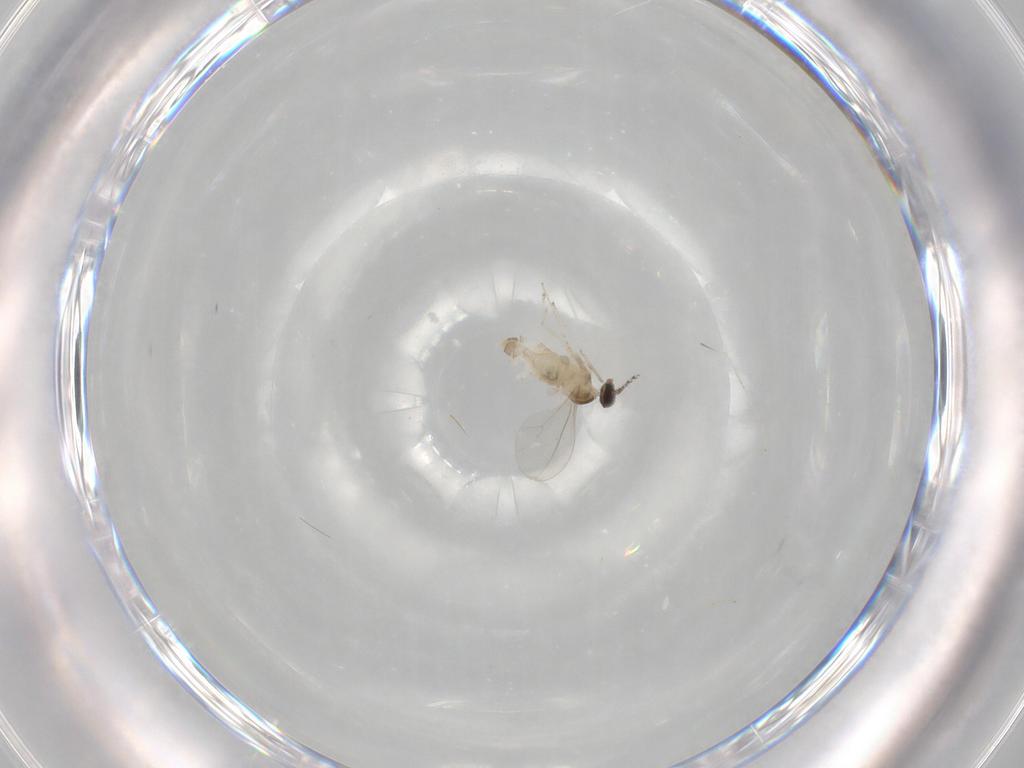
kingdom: Animalia
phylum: Arthropoda
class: Insecta
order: Diptera
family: Cecidomyiidae
